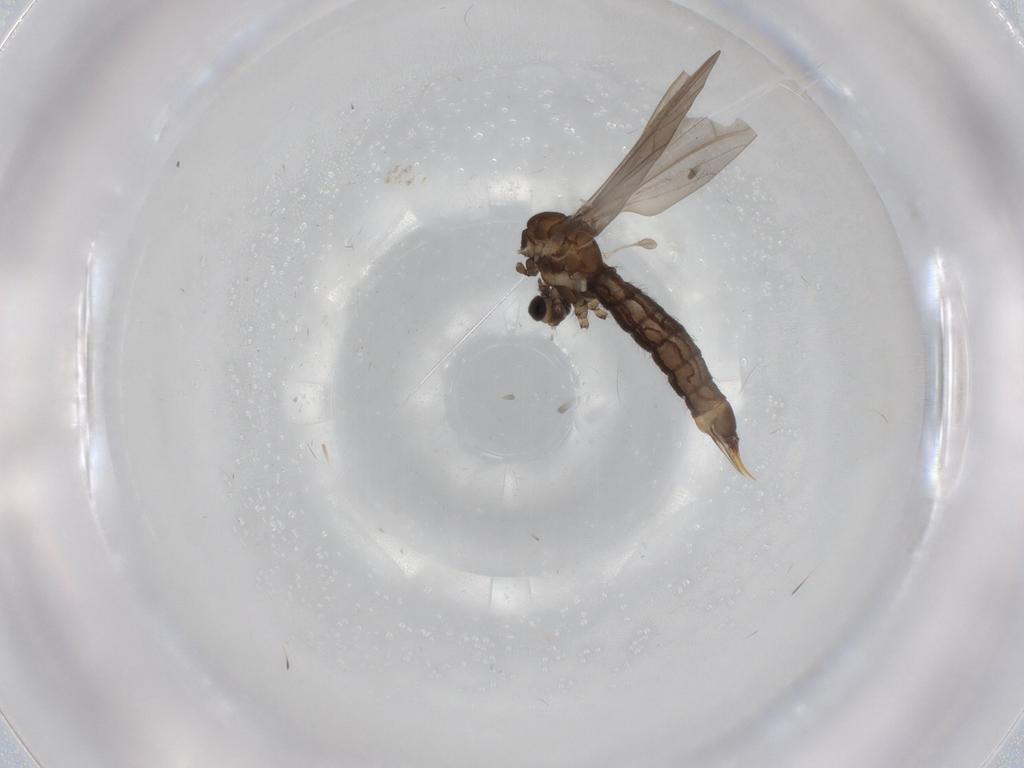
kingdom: Animalia
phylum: Arthropoda
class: Insecta
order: Diptera
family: Limoniidae
